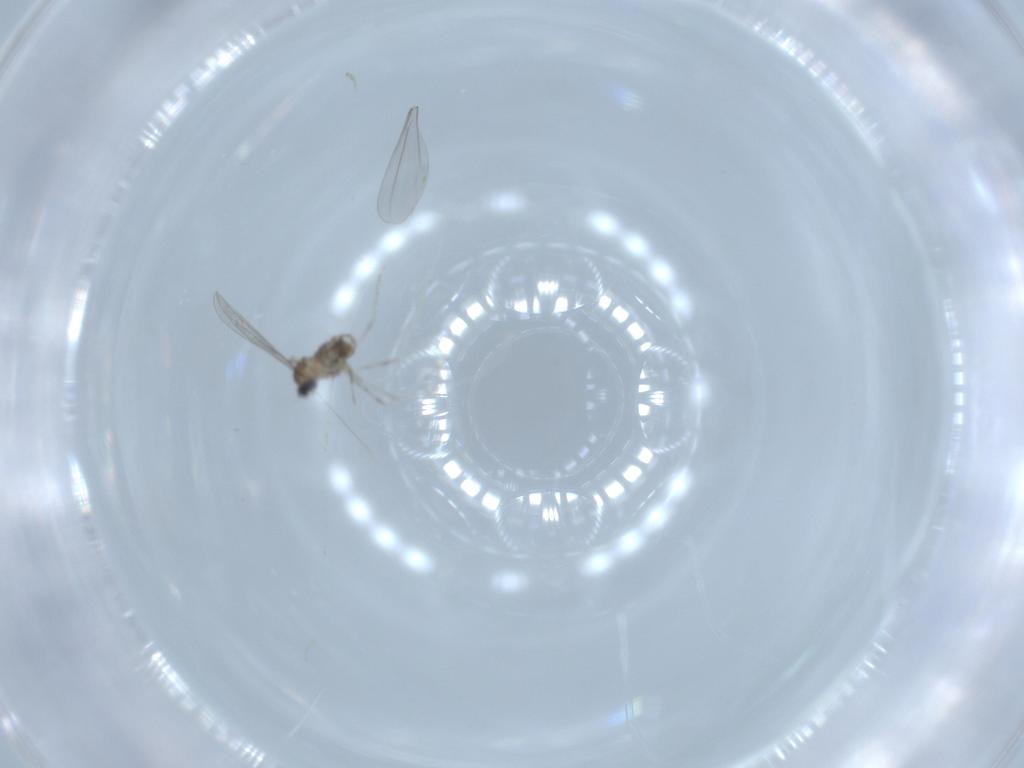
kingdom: Animalia
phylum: Arthropoda
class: Insecta
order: Diptera
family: Cecidomyiidae
